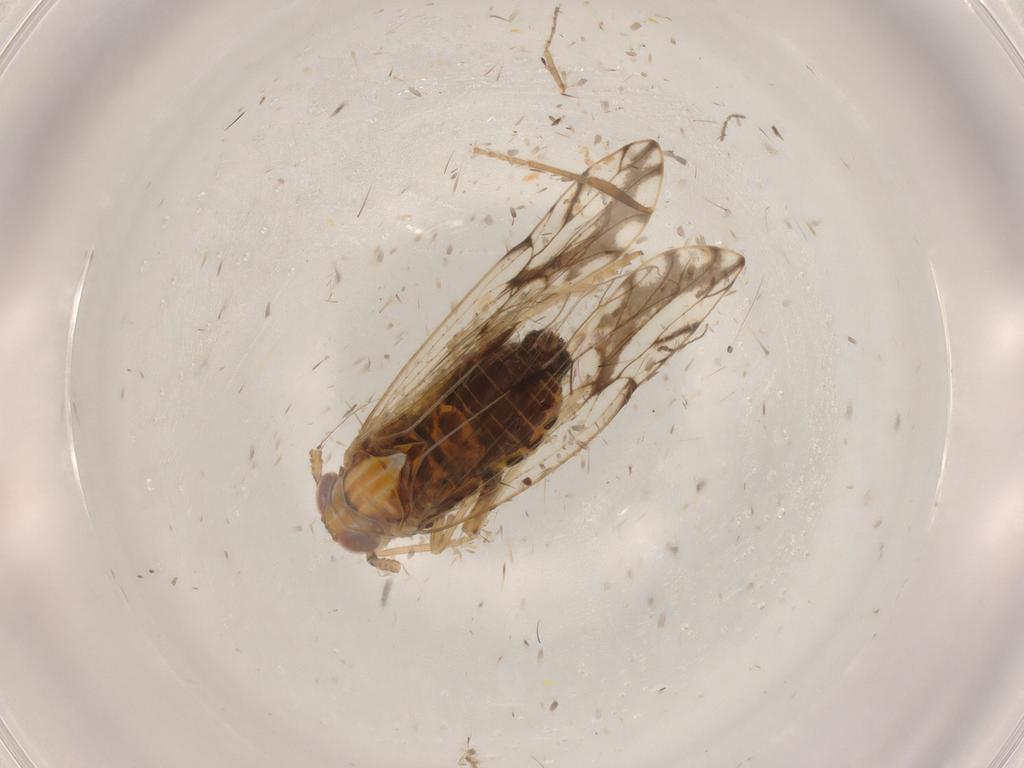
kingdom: Animalia
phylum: Arthropoda
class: Insecta
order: Hemiptera
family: Delphacidae
